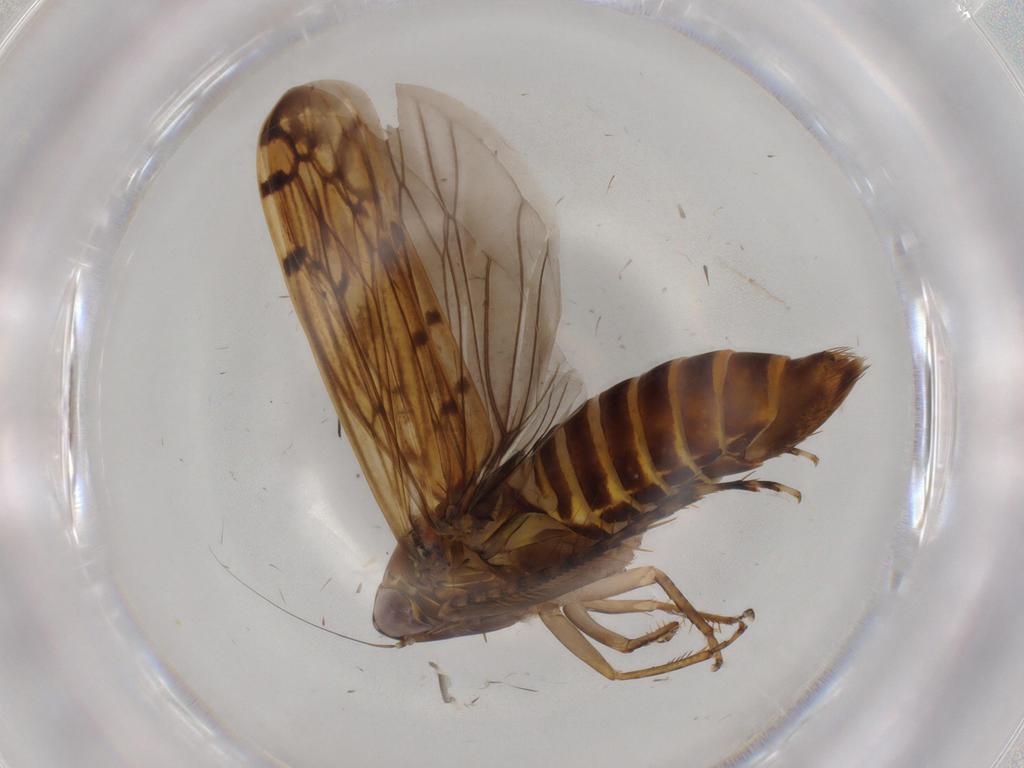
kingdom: Animalia
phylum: Arthropoda
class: Insecta
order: Hemiptera
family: Cicadellidae
